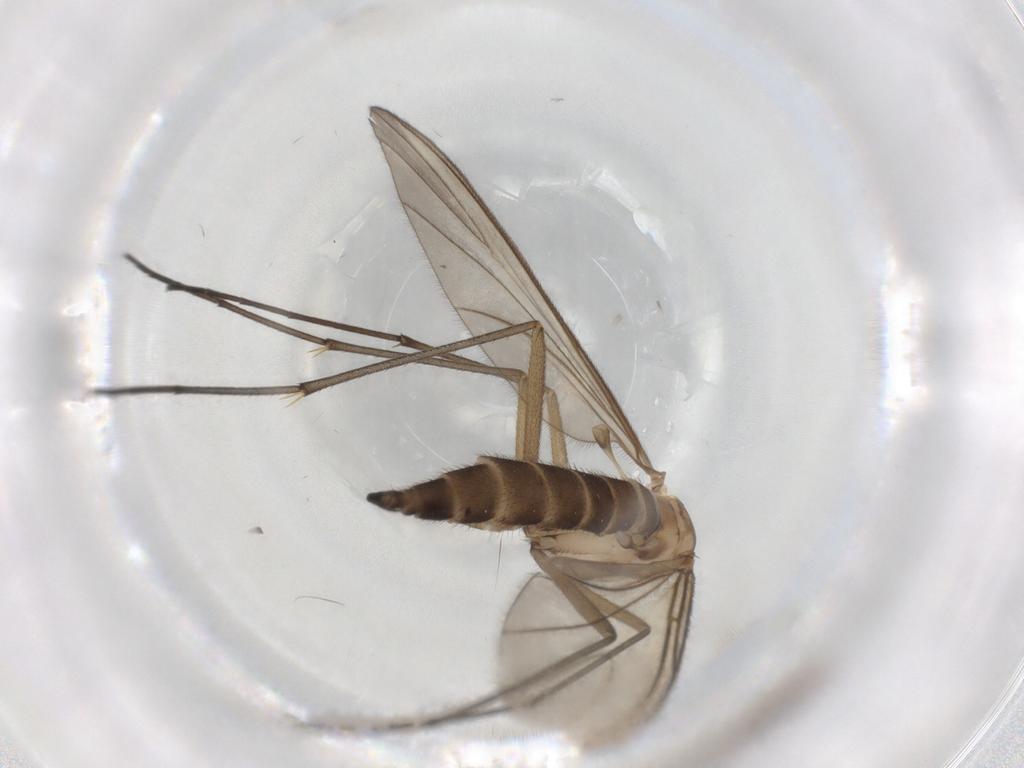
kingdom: Animalia
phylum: Arthropoda
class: Insecta
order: Diptera
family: Sciaridae
